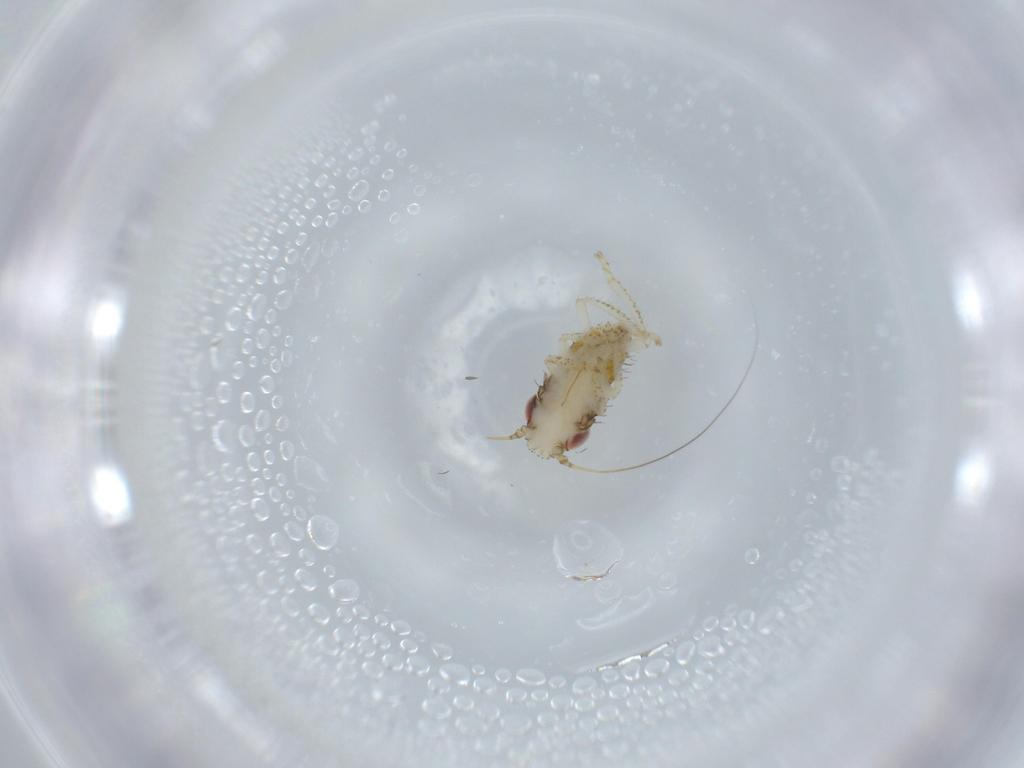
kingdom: Animalia
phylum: Arthropoda
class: Insecta
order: Hemiptera
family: Cicadellidae
